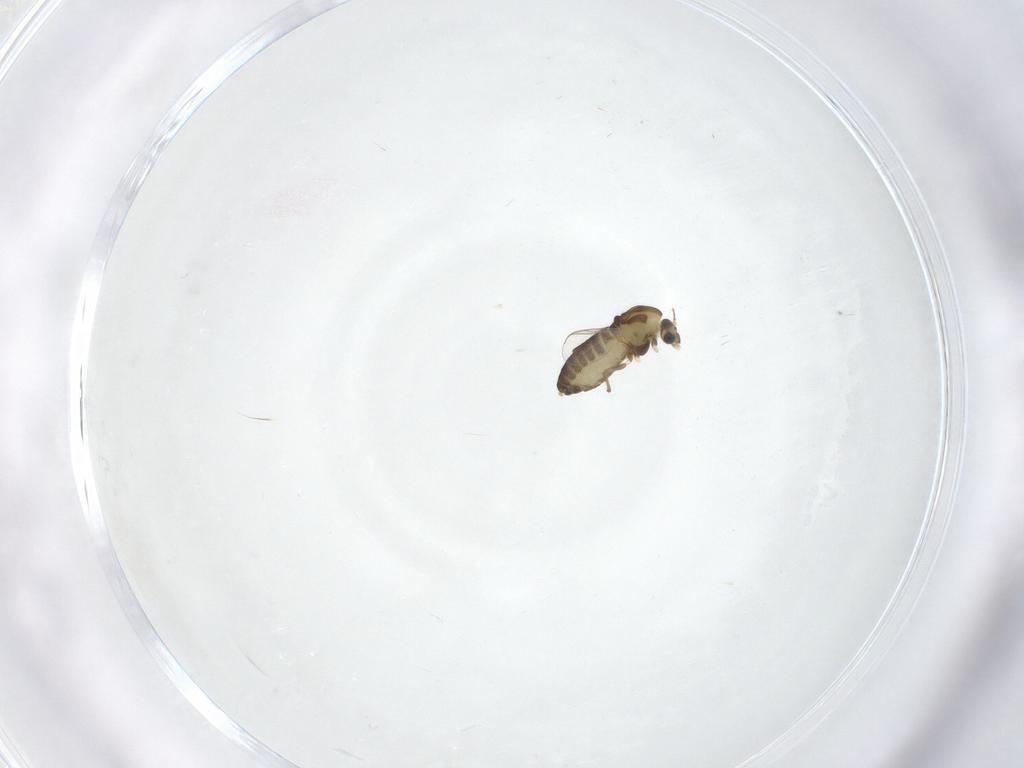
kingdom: Animalia
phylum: Arthropoda
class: Insecta
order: Diptera
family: Chironomidae
